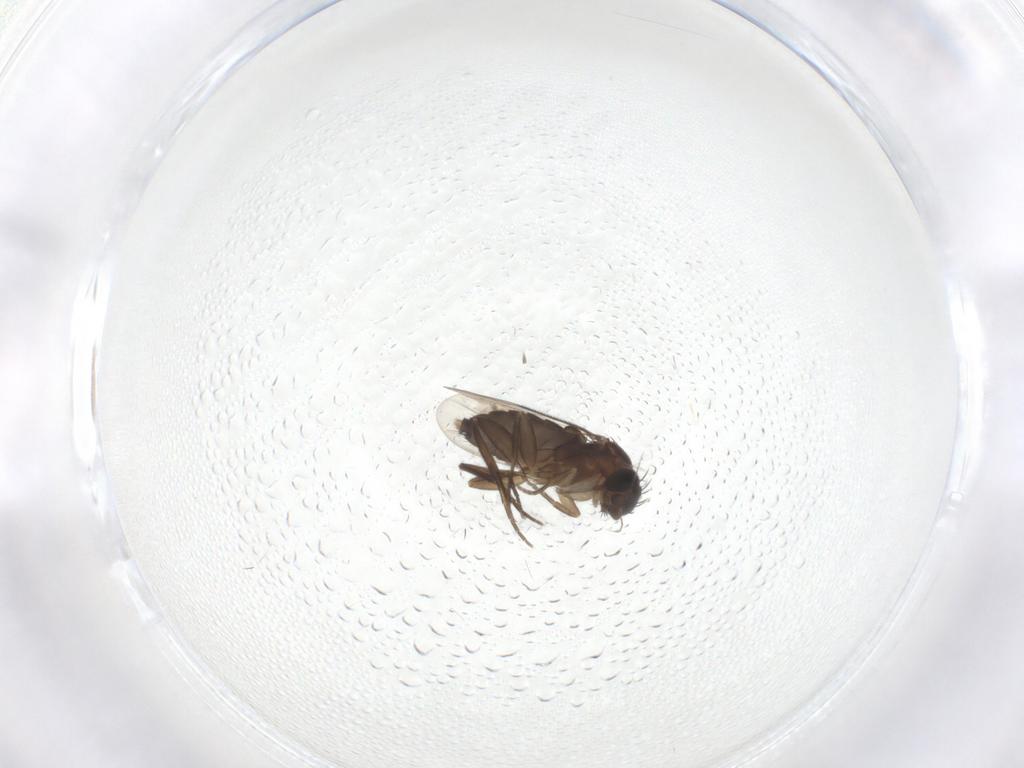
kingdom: Animalia
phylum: Arthropoda
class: Insecta
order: Diptera
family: Phoridae
